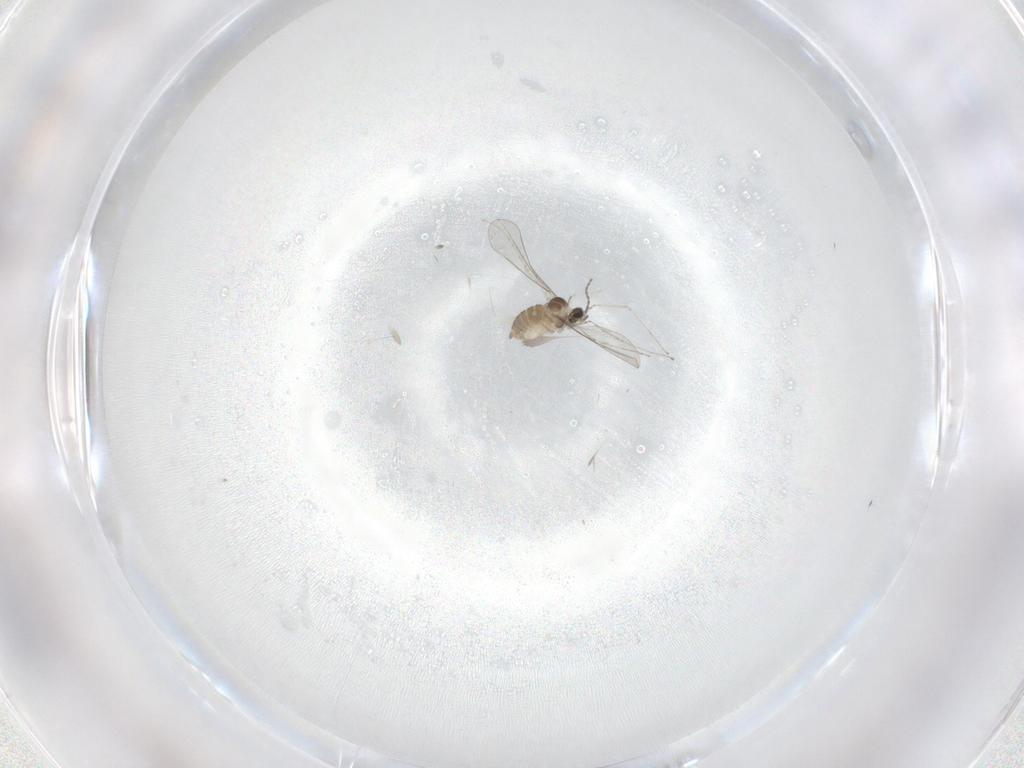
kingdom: Animalia
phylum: Arthropoda
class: Insecta
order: Diptera
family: Cecidomyiidae
